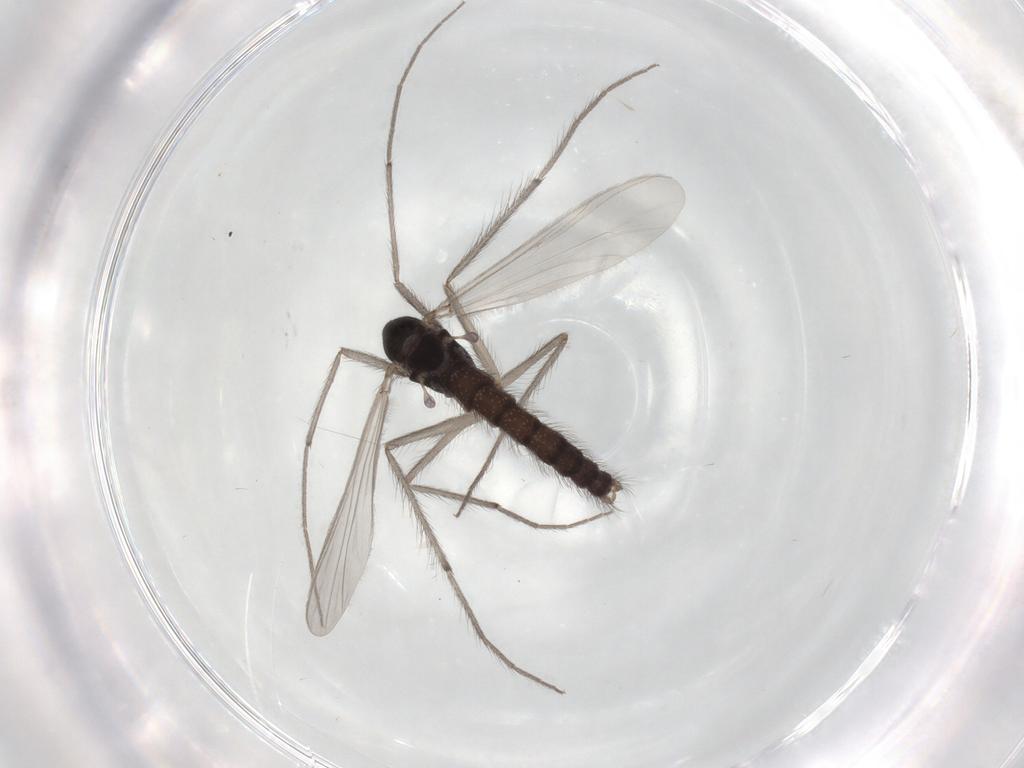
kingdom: Animalia
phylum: Arthropoda
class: Insecta
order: Diptera
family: Chironomidae
